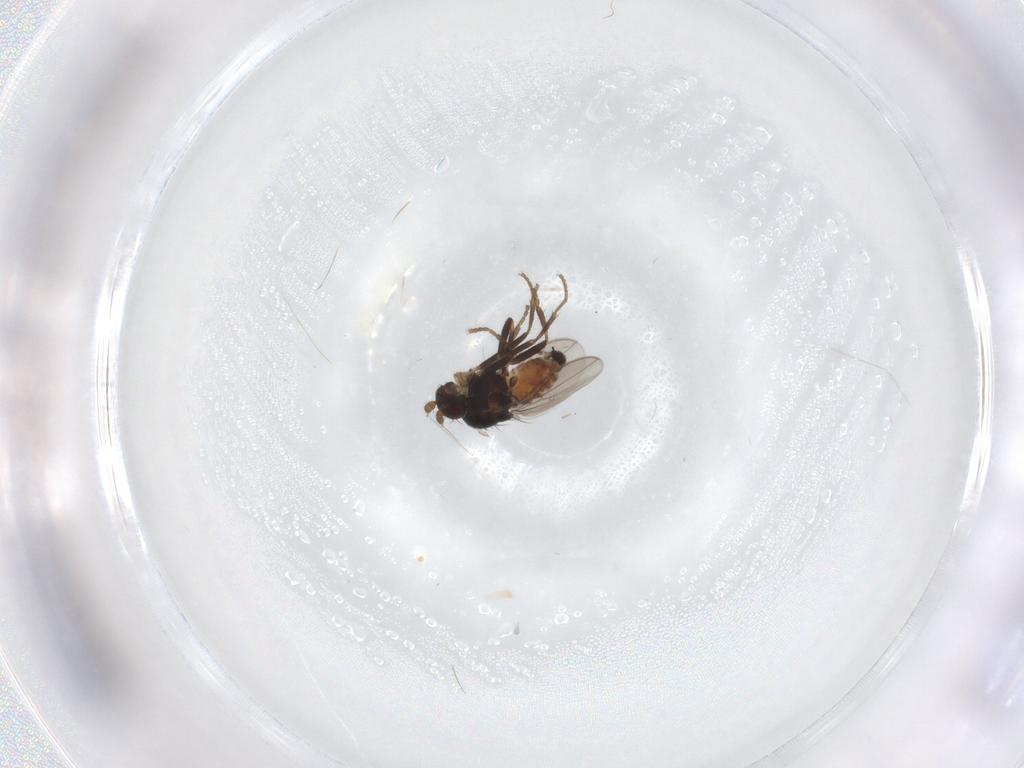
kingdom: Animalia
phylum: Arthropoda
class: Insecta
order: Diptera
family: Sphaeroceridae
